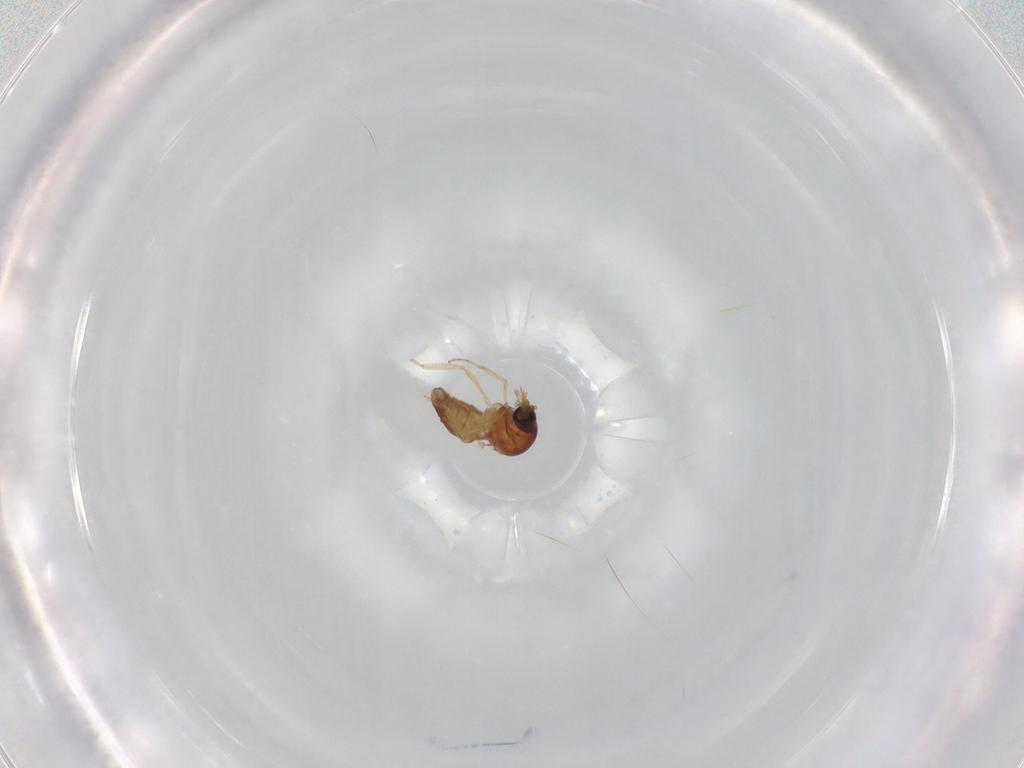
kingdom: Animalia
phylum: Arthropoda
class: Insecta
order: Diptera
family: Ceratopogonidae
